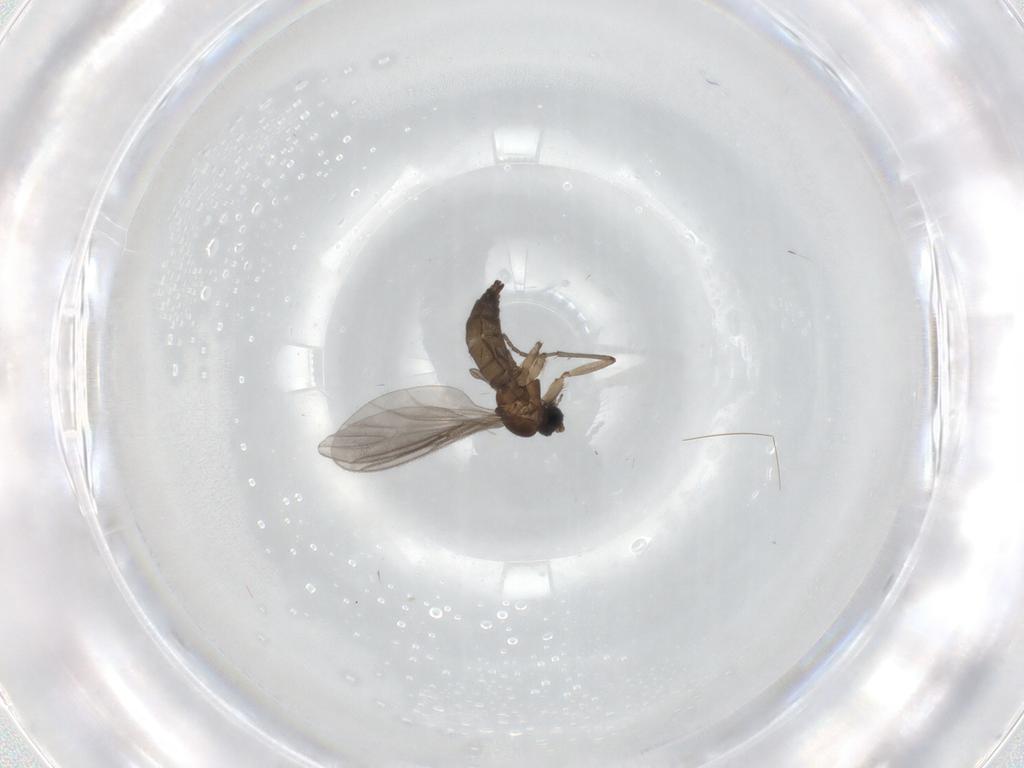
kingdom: Animalia
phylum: Arthropoda
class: Insecta
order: Diptera
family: Sciaridae
